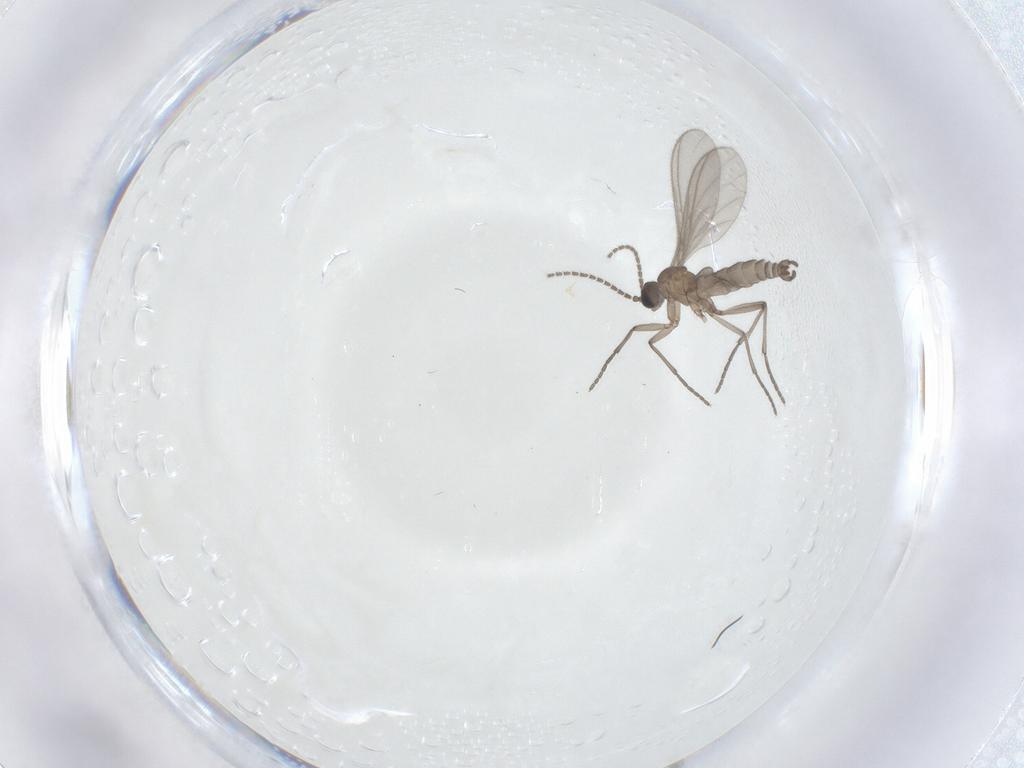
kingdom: Animalia
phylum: Arthropoda
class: Insecta
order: Diptera
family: Sciaridae
